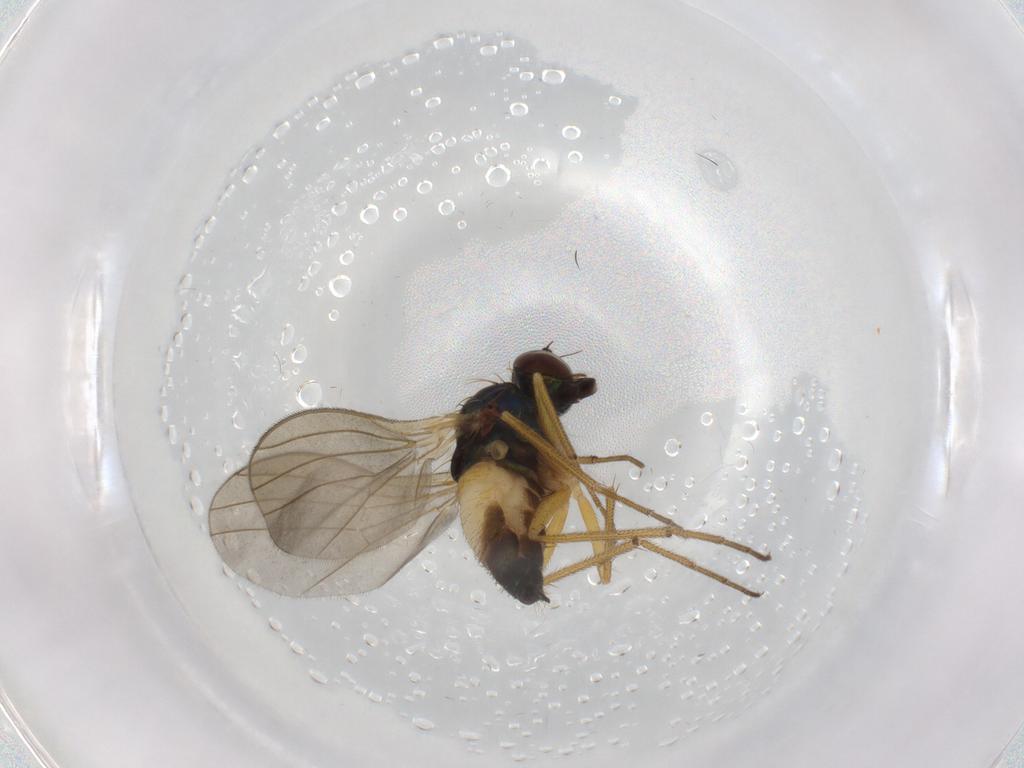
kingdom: Animalia
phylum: Arthropoda
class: Insecta
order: Diptera
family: Dolichopodidae
